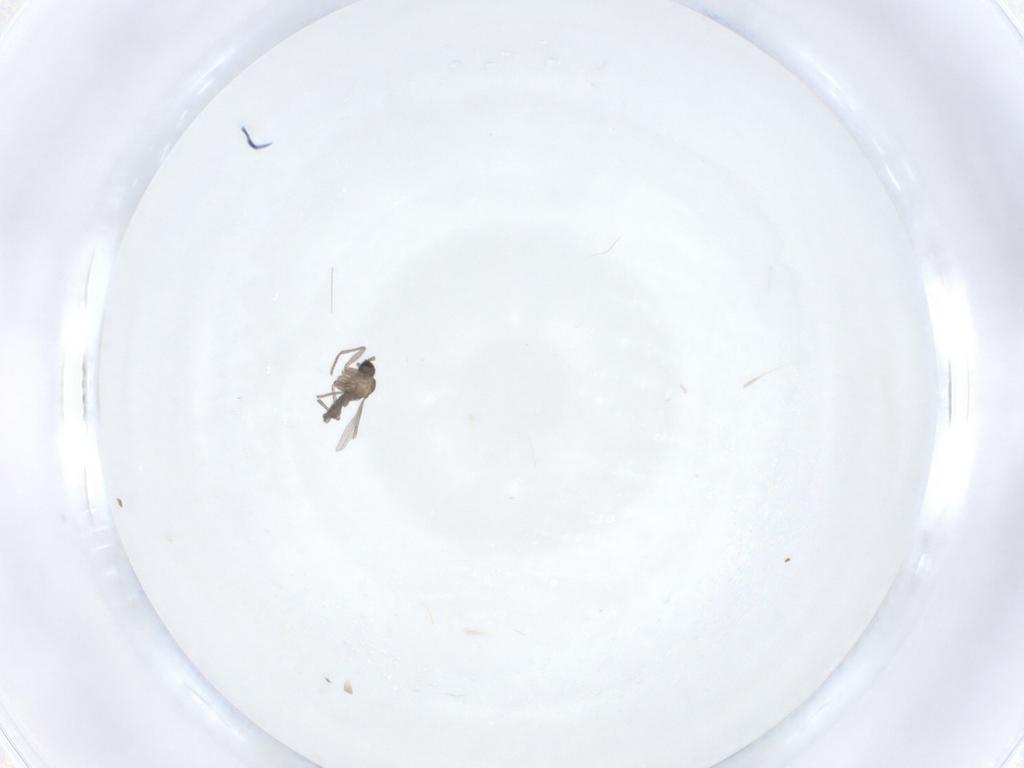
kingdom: Animalia
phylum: Arthropoda
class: Insecta
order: Diptera
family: Sciaridae
